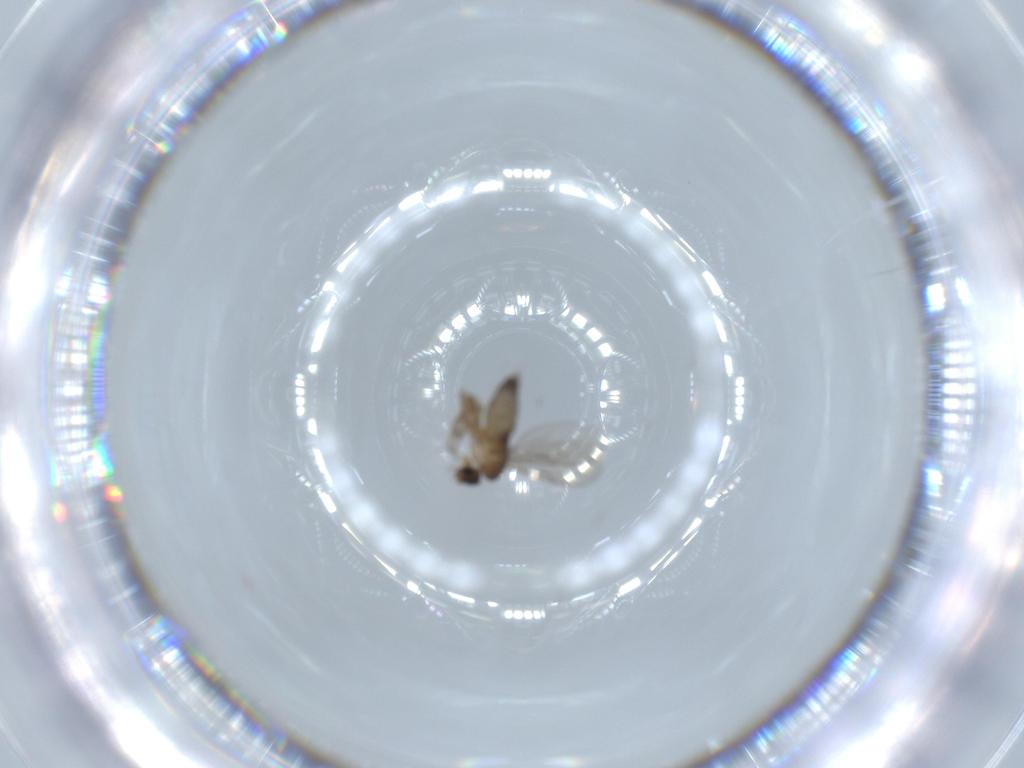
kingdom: Animalia
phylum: Arthropoda
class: Insecta
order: Diptera
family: Phoridae
